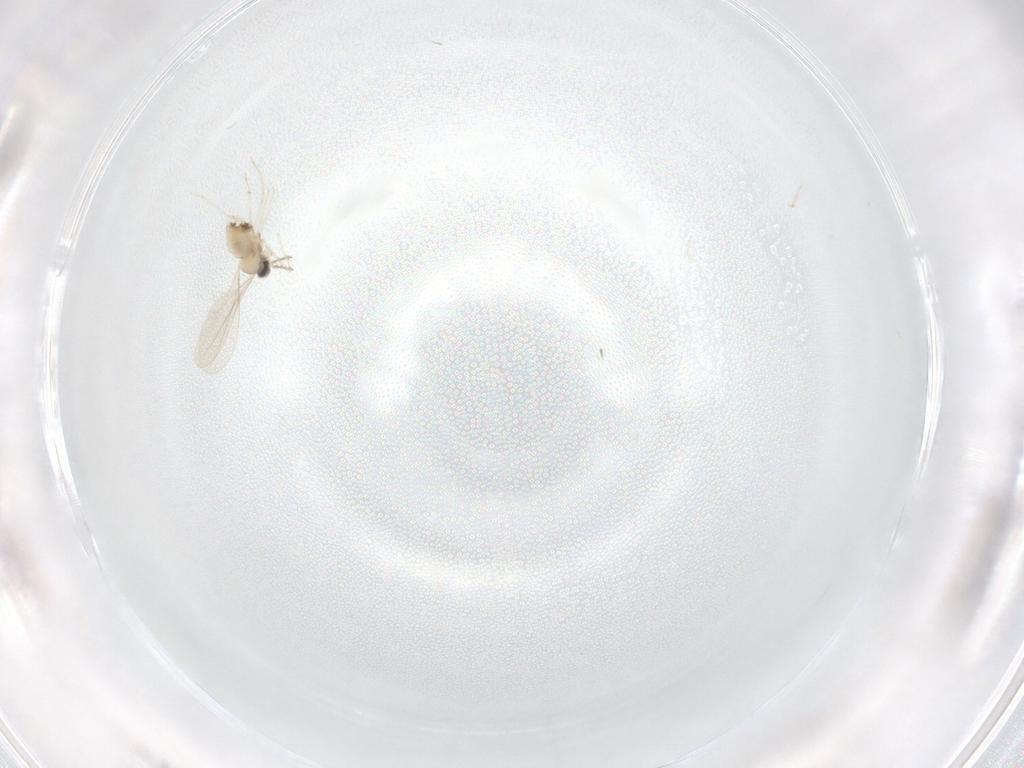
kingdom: Animalia
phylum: Arthropoda
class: Insecta
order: Diptera
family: Cecidomyiidae
